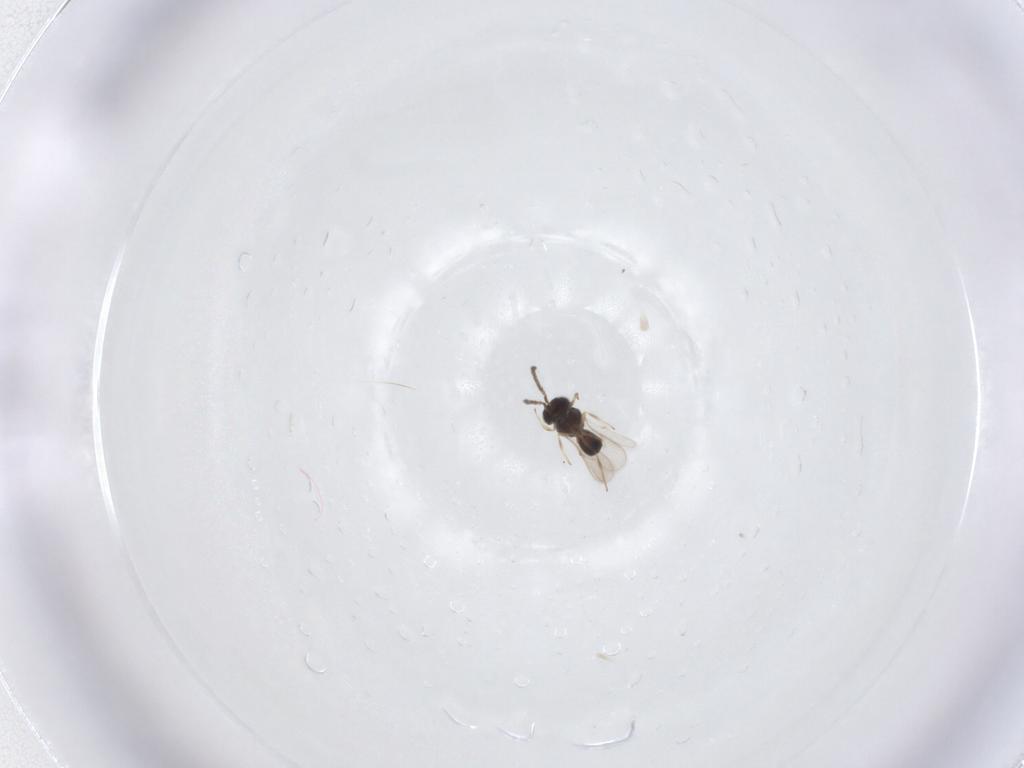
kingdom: Animalia
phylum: Arthropoda
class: Insecta
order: Hymenoptera
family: Scelionidae
